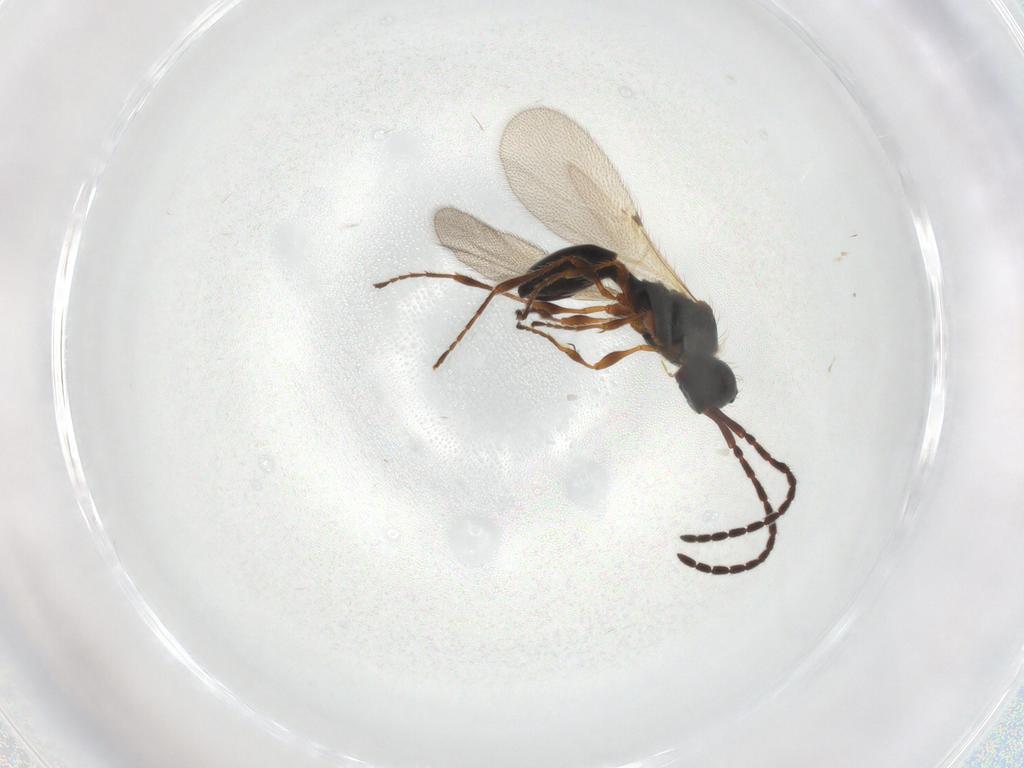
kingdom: Animalia
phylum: Arthropoda
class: Insecta
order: Hymenoptera
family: Diapriidae
